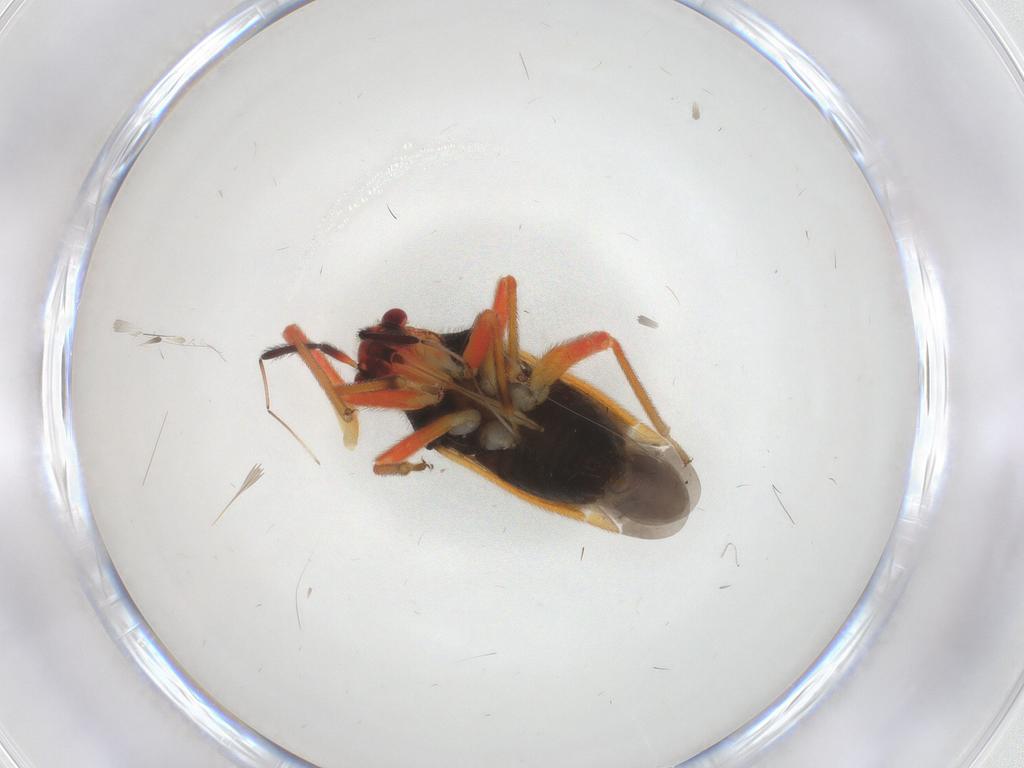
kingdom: Animalia
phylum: Arthropoda
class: Insecta
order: Hemiptera
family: Miridae
